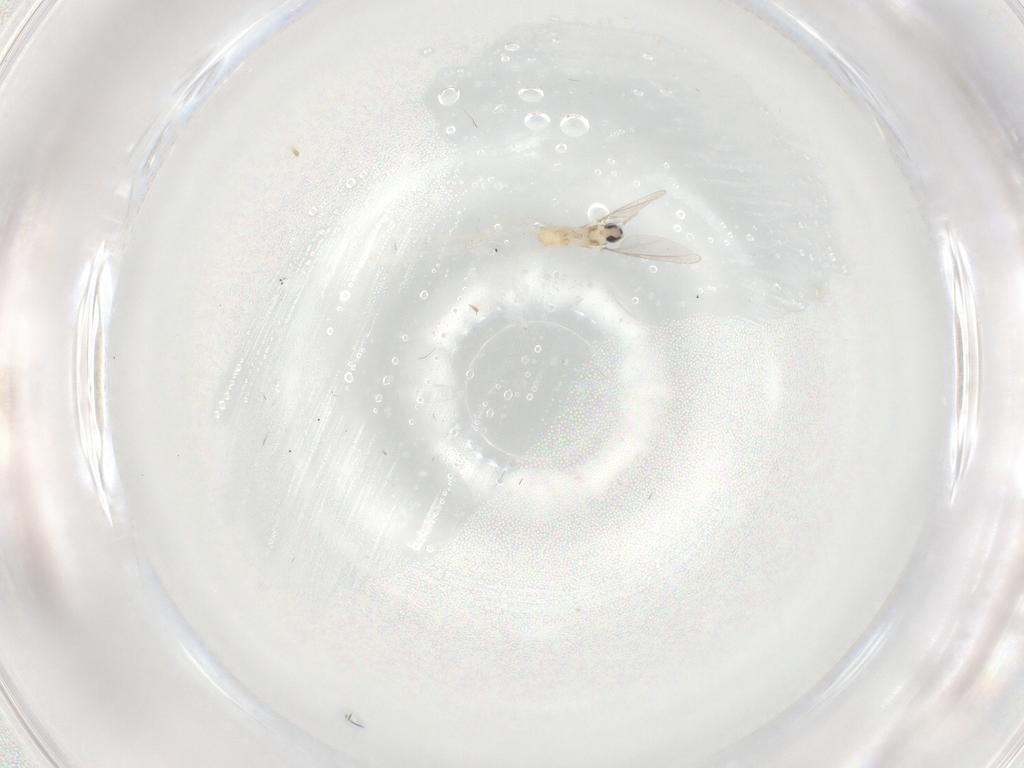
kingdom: Animalia
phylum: Arthropoda
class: Insecta
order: Diptera
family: Cecidomyiidae
